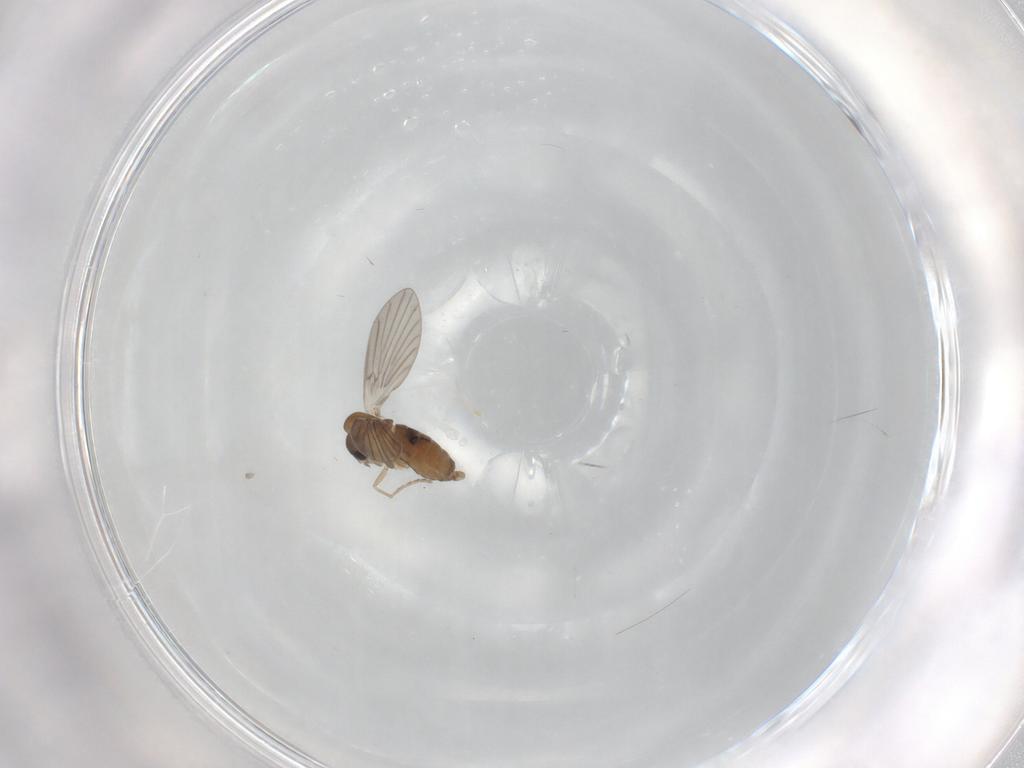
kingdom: Animalia
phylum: Arthropoda
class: Insecta
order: Diptera
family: Cecidomyiidae
